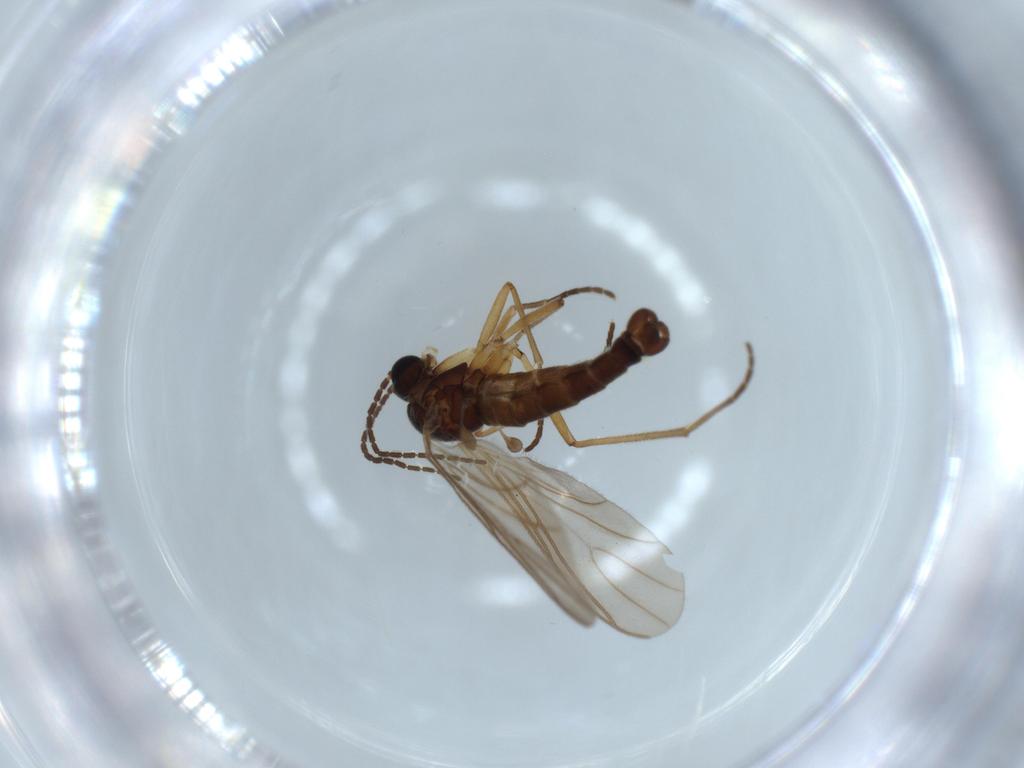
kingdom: Animalia
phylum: Arthropoda
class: Insecta
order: Diptera
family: Sciaridae
